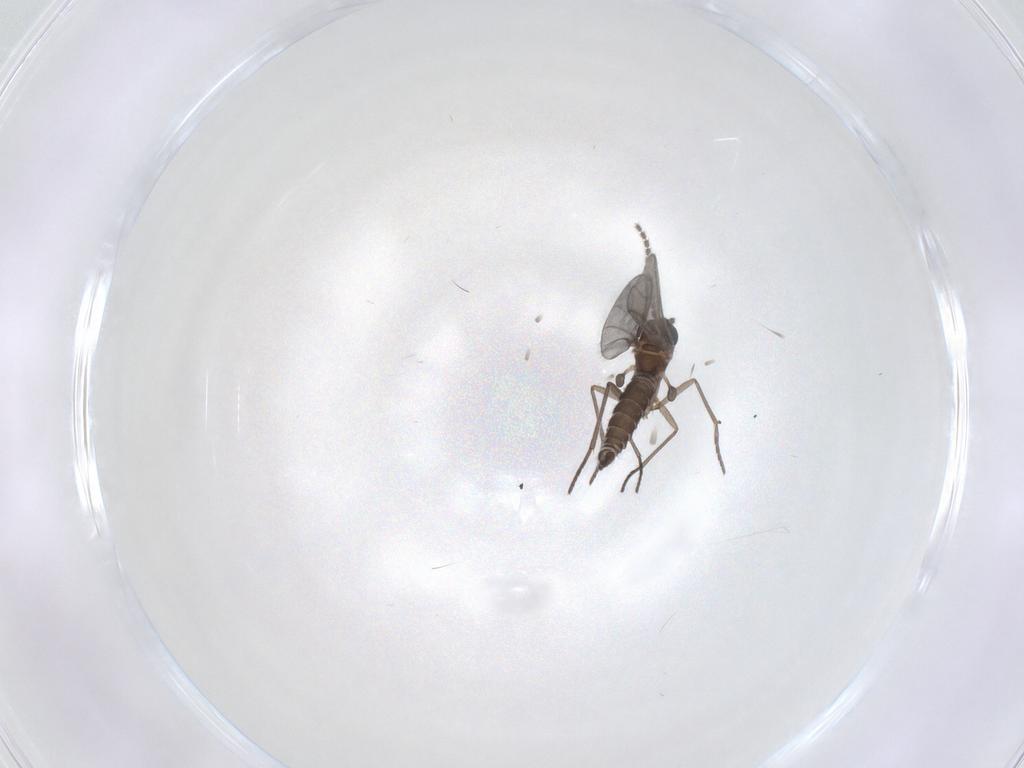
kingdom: Animalia
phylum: Arthropoda
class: Insecta
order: Diptera
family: Limoniidae
